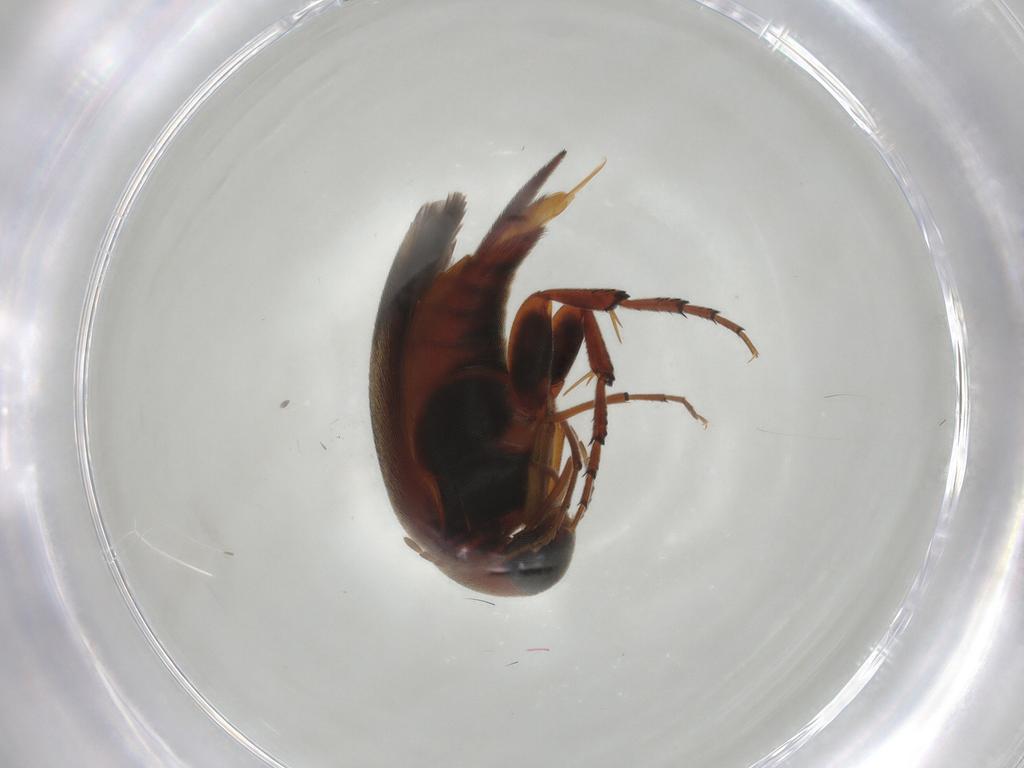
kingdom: Animalia
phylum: Arthropoda
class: Insecta
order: Coleoptera
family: Mordellidae
